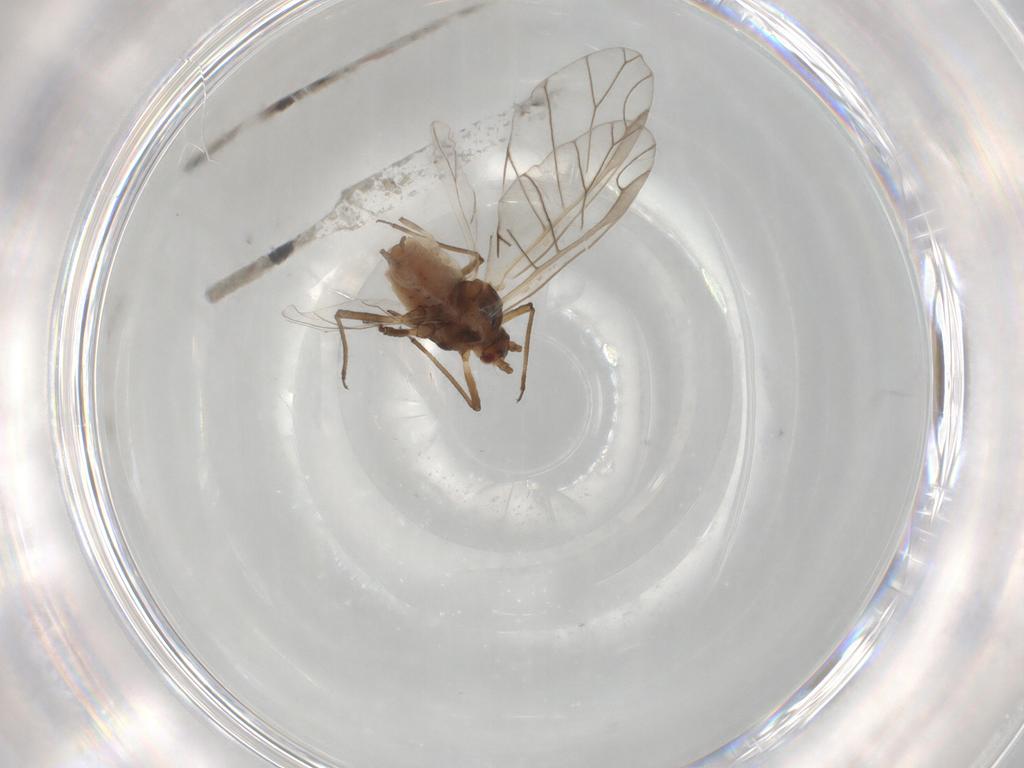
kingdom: Animalia
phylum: Arthropoda
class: Insecta
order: Hemiptera
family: Aphididae
